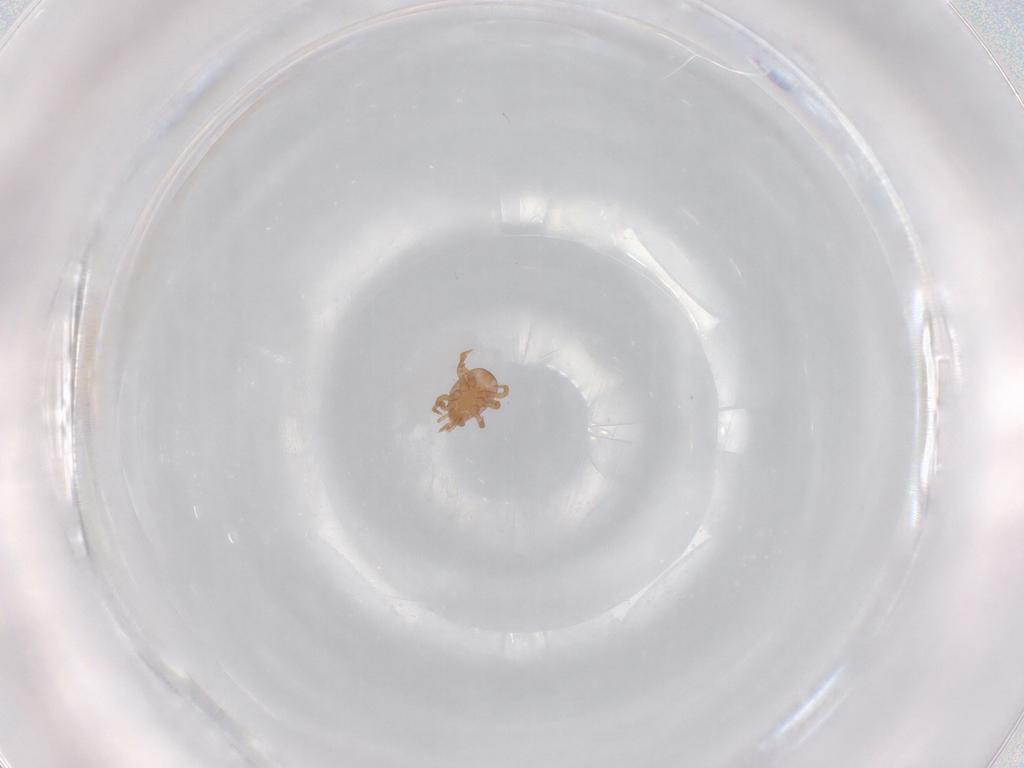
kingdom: Animalia
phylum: Arthropoda
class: Arachnida
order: Mesostigmata
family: Eviphididae
